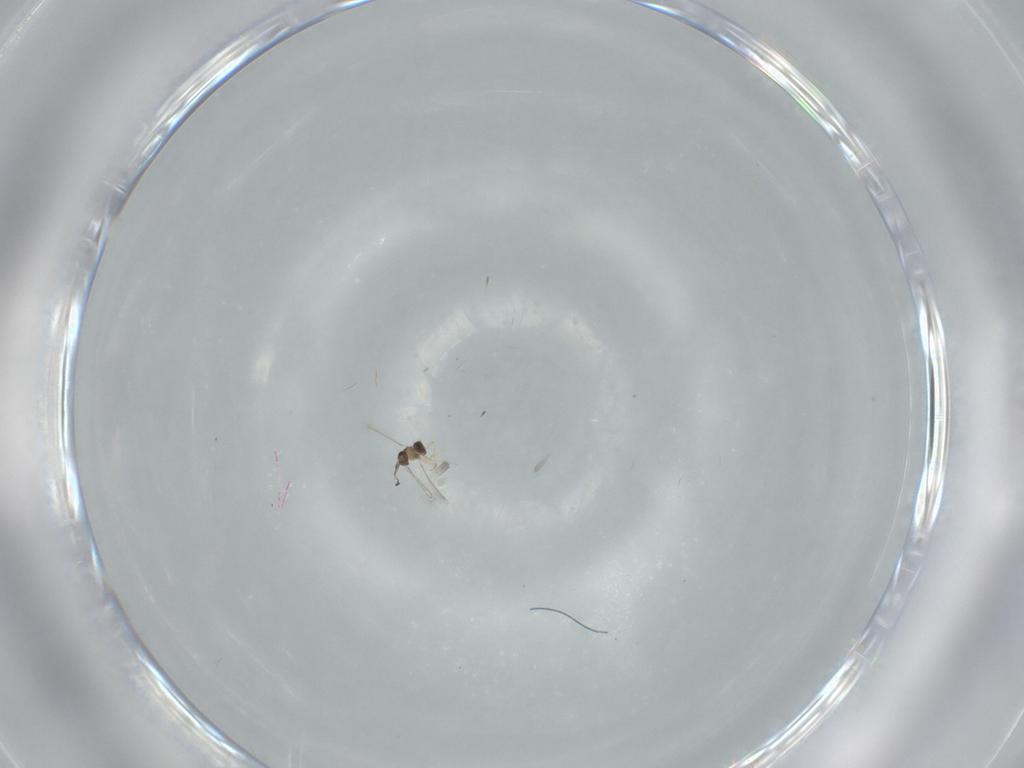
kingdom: Animalia
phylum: Arthropoda
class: Insecta
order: Hymenoptera
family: Mymaridae
